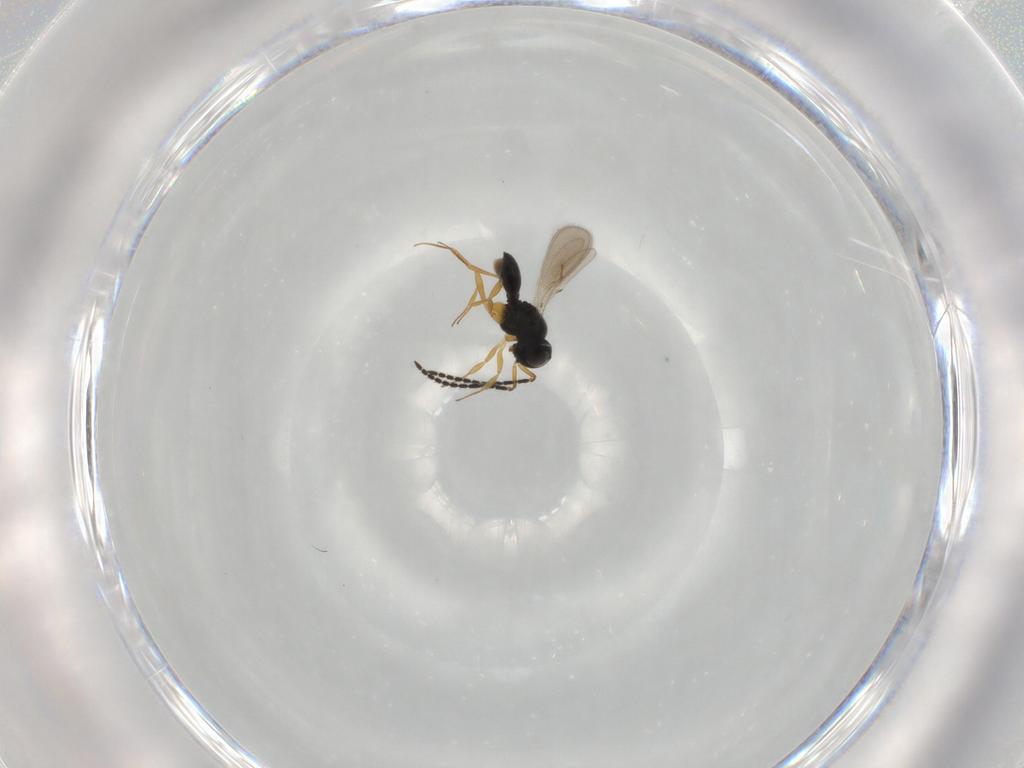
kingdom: Animalia
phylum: Arthropoda
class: Insecta
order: Hymenoptera
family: Scelionidae
